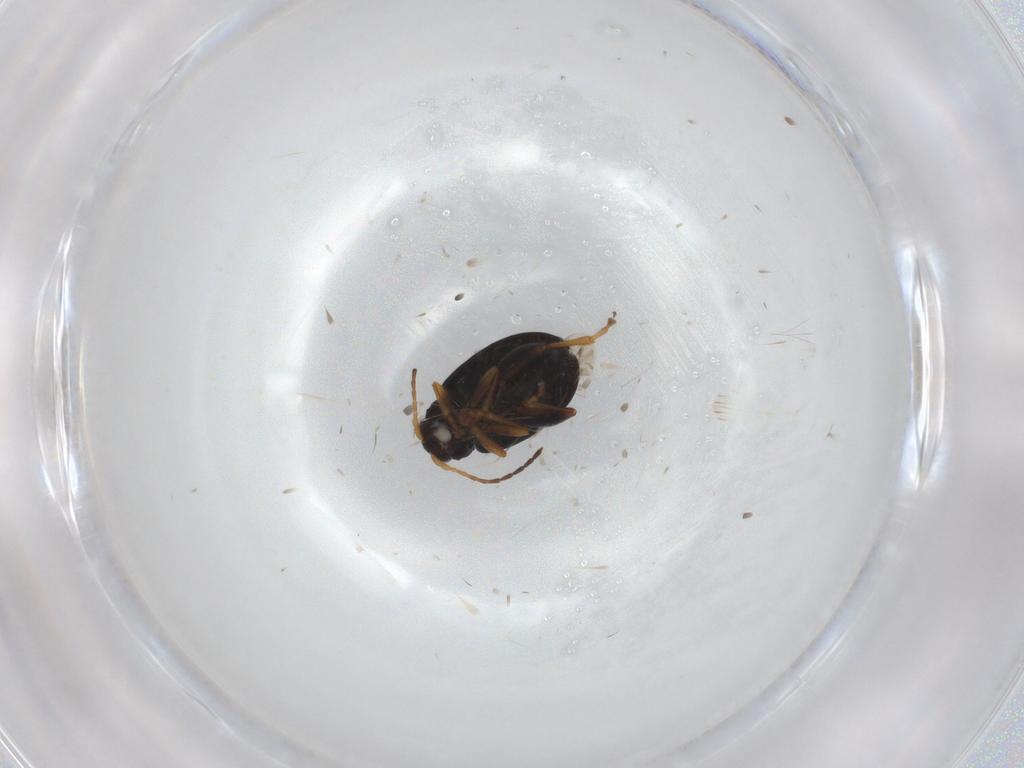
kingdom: Animalia
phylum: Arthropoda
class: Insecta
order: Coleoptera
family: Chrysomelidae
